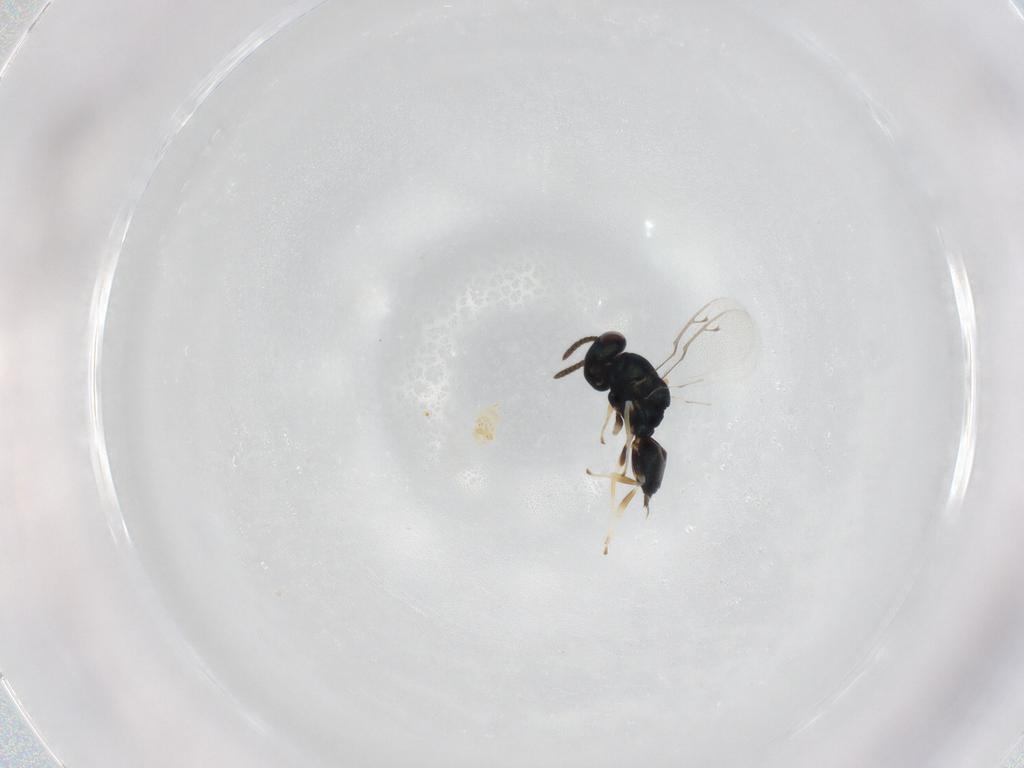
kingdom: Animalia
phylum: Arthropoda
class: Insecta
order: Hymenoptera
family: Pteromalidae
